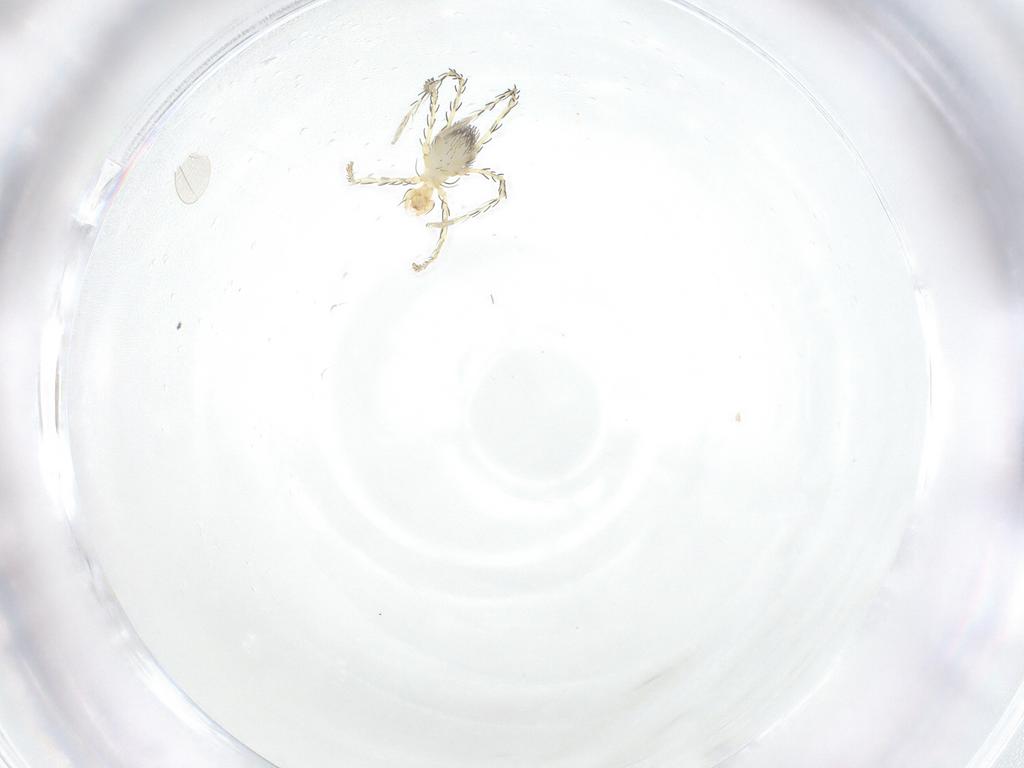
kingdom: Animalia
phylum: Arthropoda
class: Arachnida
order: Trombidiformes
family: Erythraeidae
